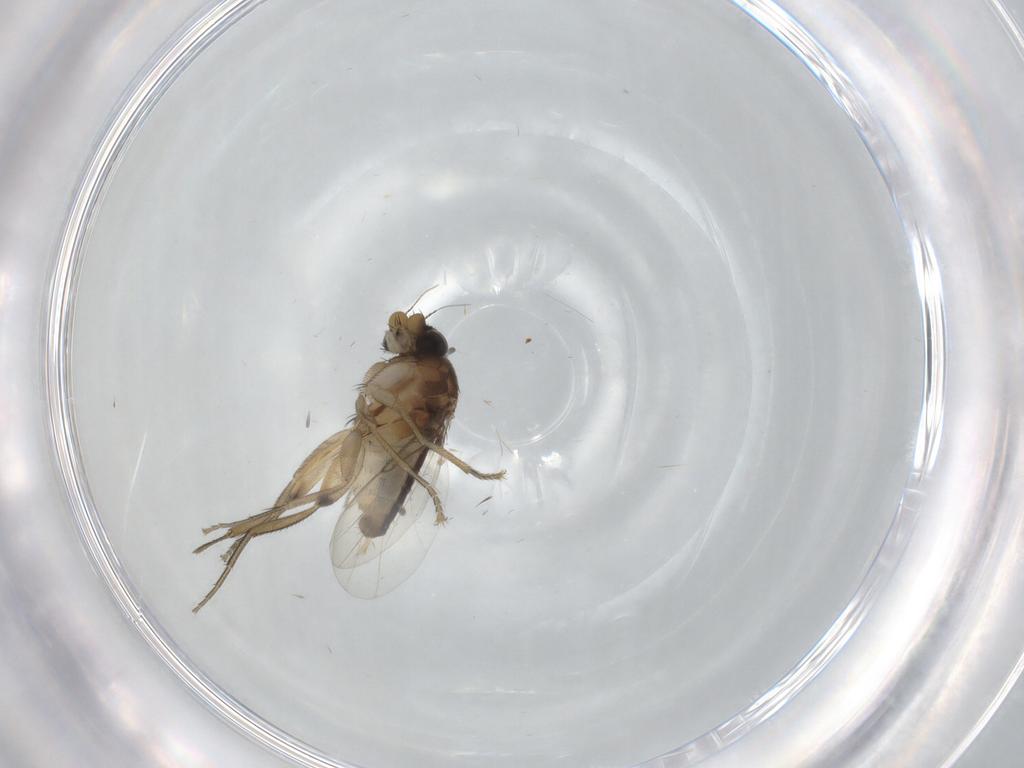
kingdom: Animalia
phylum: Arthropoda
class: Insecta
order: Diptera
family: Phoridae
